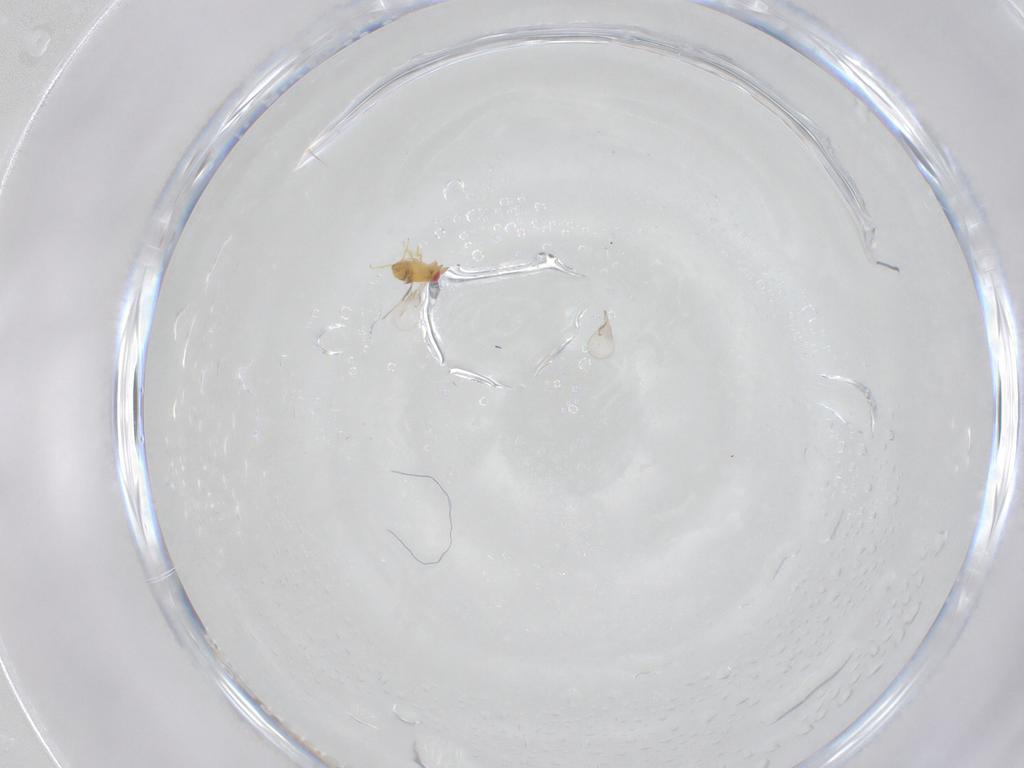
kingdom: Animalia
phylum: Arthropoda
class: Insecta
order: Hymenoptera
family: Trichogrammatidae
